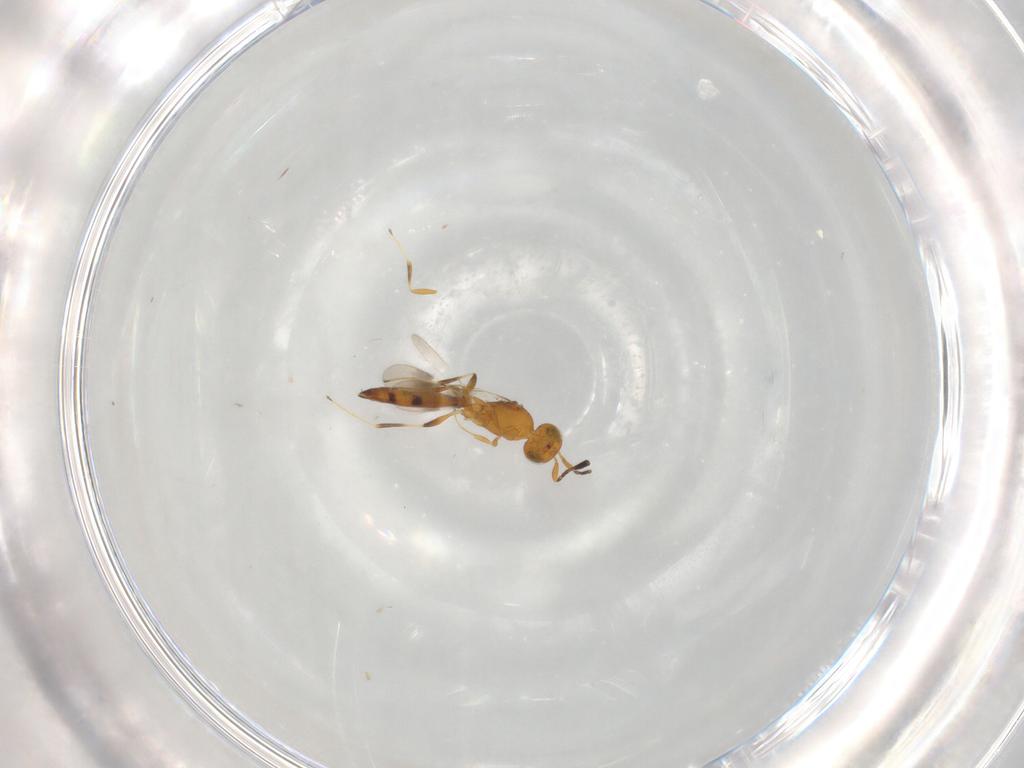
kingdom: Animalia
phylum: Arthropoda
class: Insecta
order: Hymenoptera
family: Scelionidae
